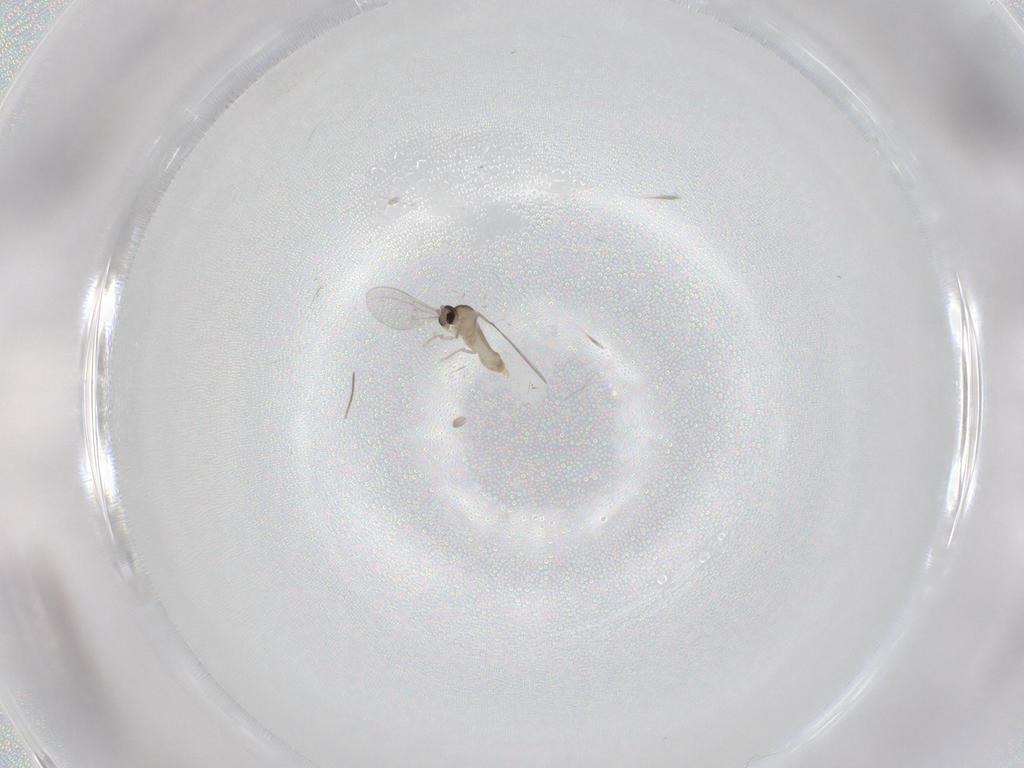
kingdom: Animalia
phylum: Arthropoda
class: Insecta
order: Diptera
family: Cecidomyiidae
